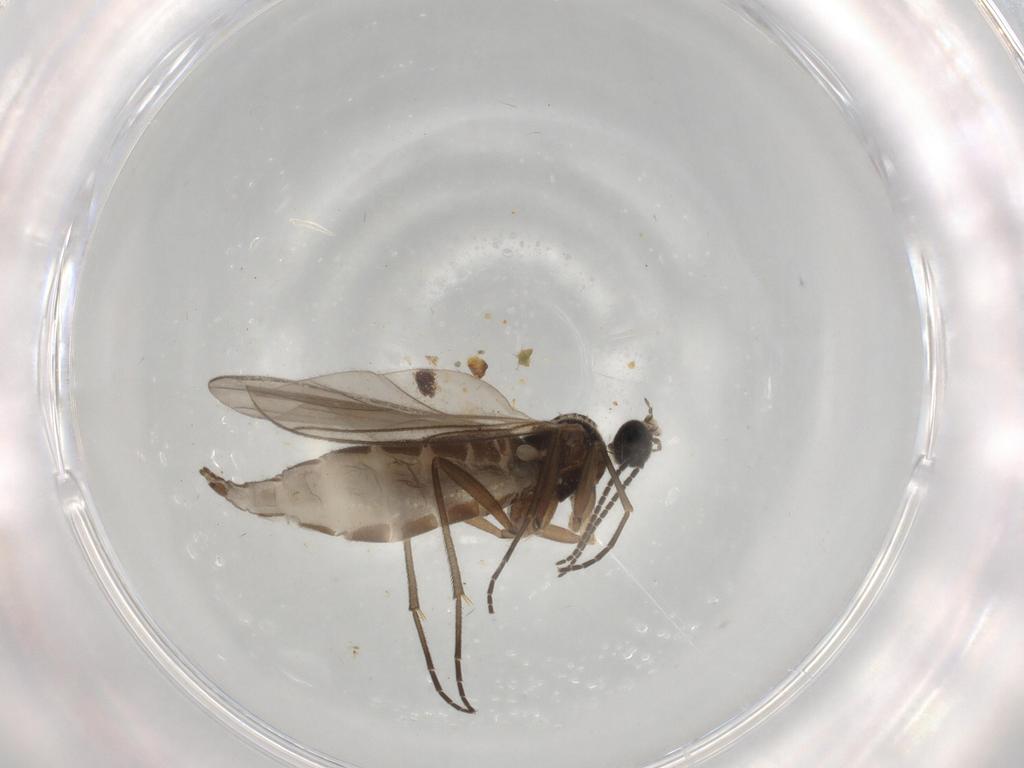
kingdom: Animalia
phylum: Arthropoda
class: Insecta
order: Diptera
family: Sciaridae
